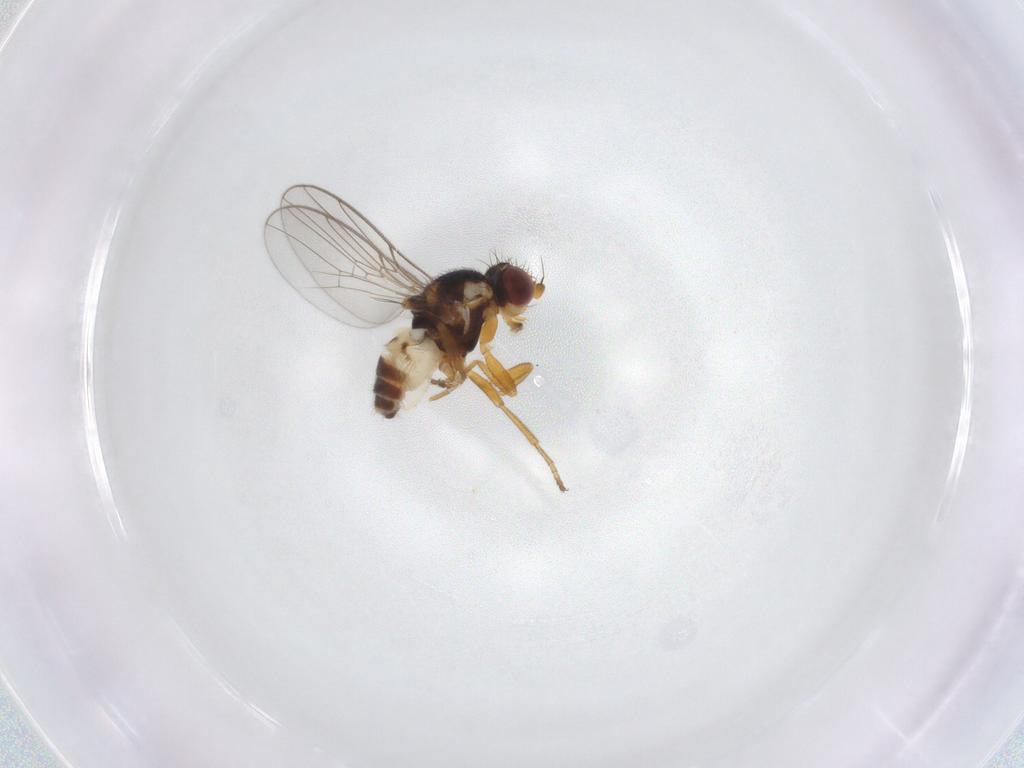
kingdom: Animalia
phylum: Arthropoda
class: Insecta
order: Diptera
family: Chloropidae
